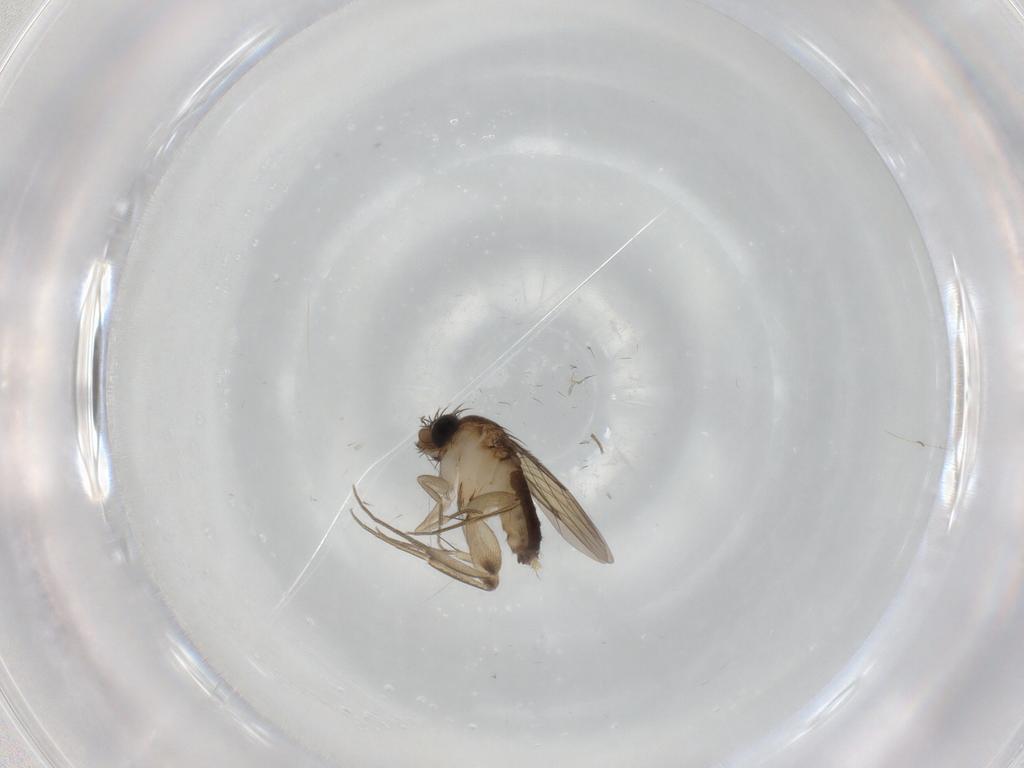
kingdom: Animalia
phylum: Arthropoda
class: Insecta
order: Diptera
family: Phoridae
